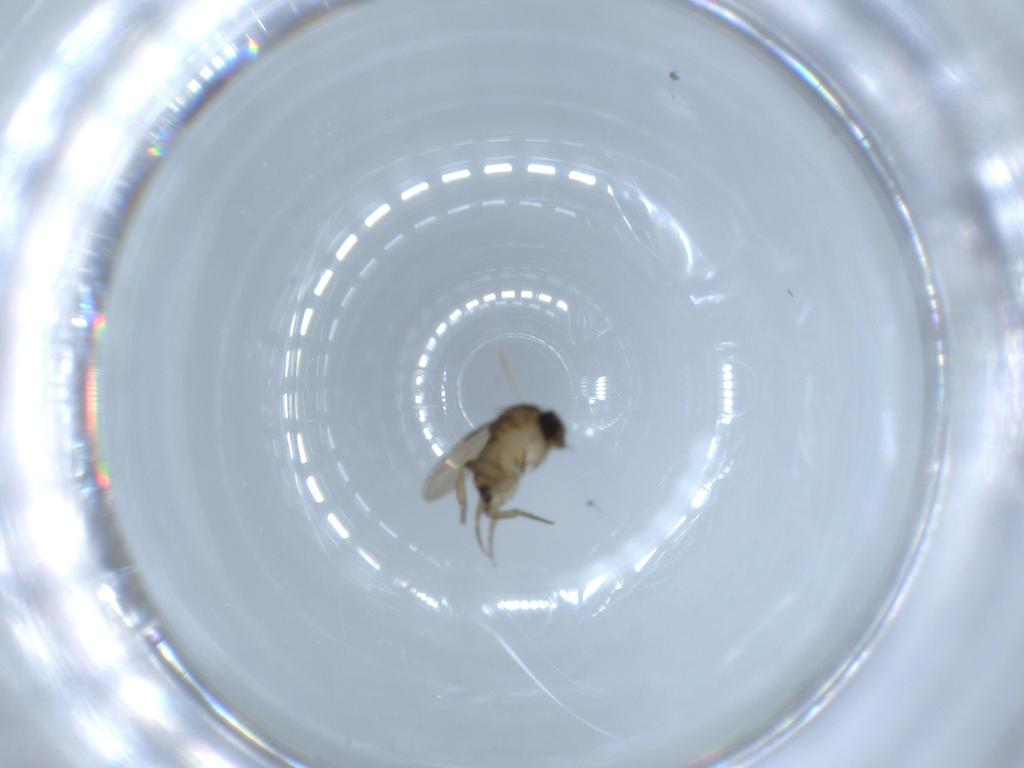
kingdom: Animalia
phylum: Arthropoda
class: Insecta
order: Diptera
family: Phoridae
